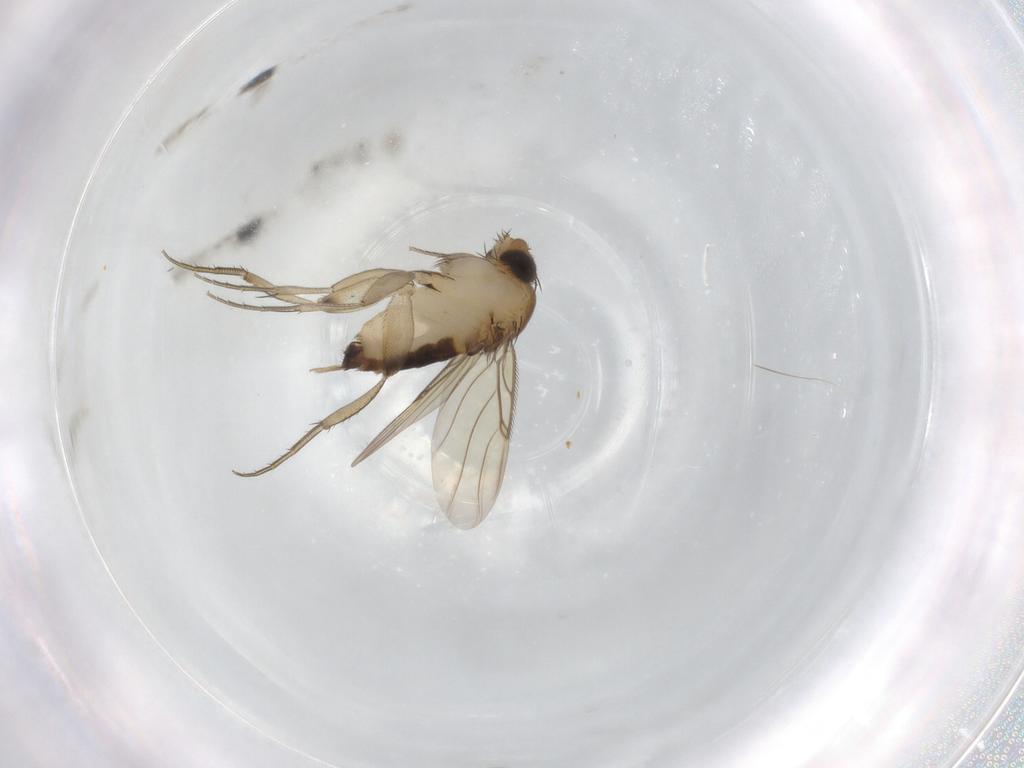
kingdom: Animalia
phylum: Arthropoda
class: Insecta
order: Diptera
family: Phoridae
